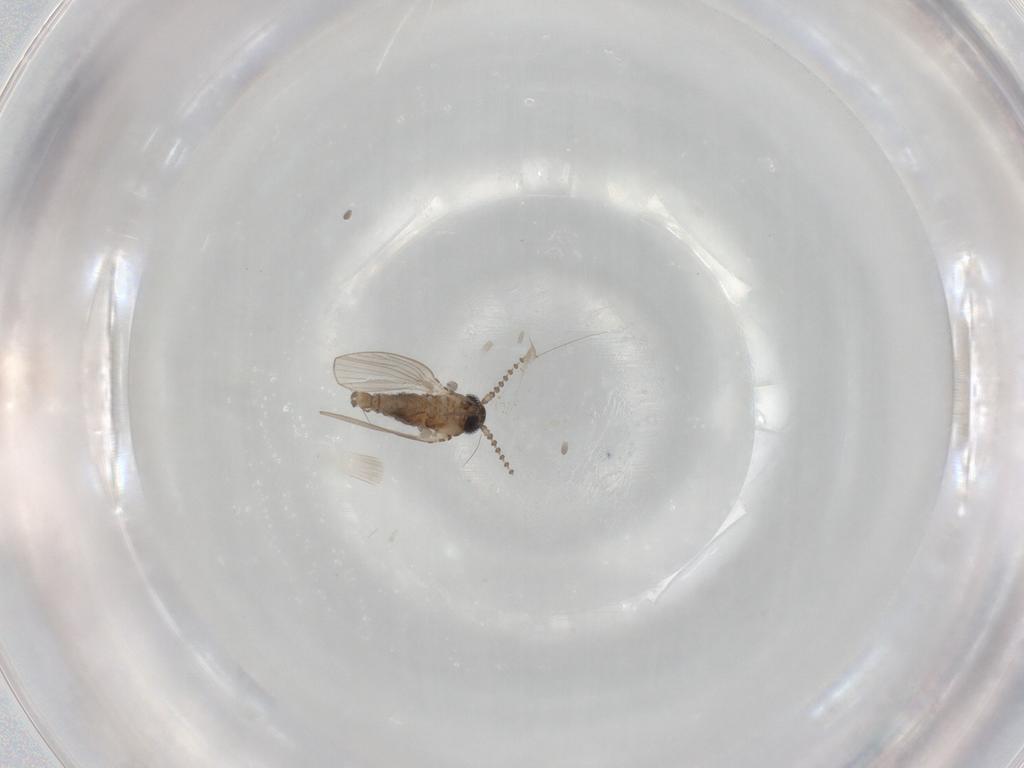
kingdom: Animalia
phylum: Arthropoda
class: Insecta
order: Diptera
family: Psychodidae
